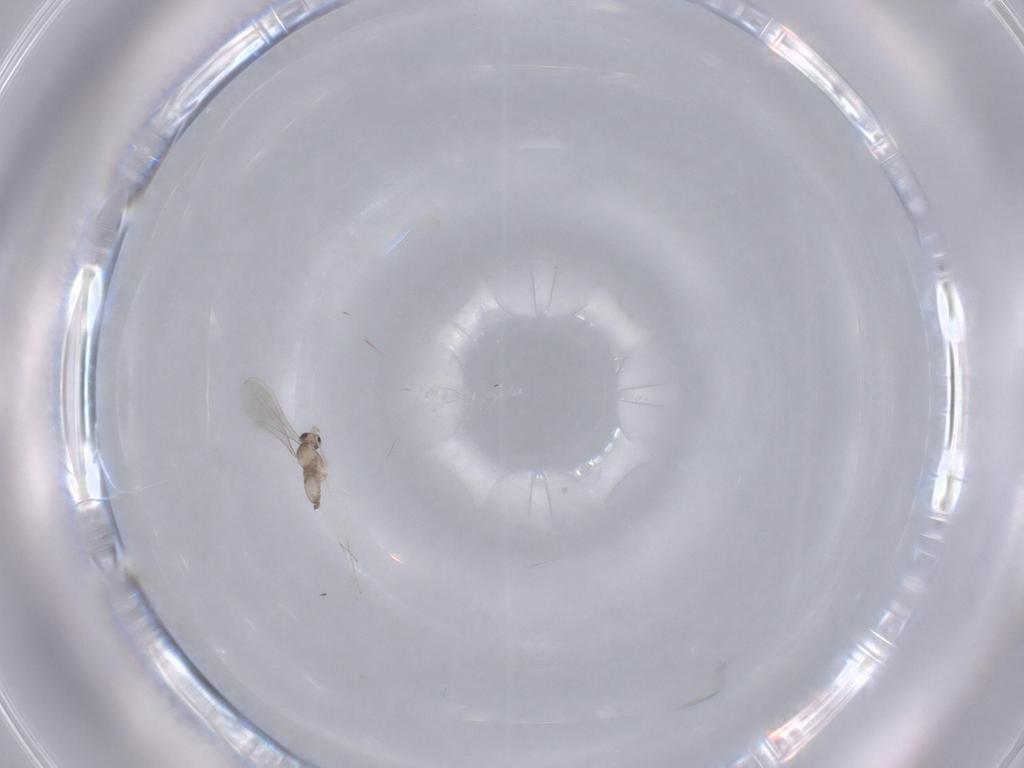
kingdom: Animalia
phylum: Arthropoda
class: Insecta
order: Diptera
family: Cecidomyiidae
